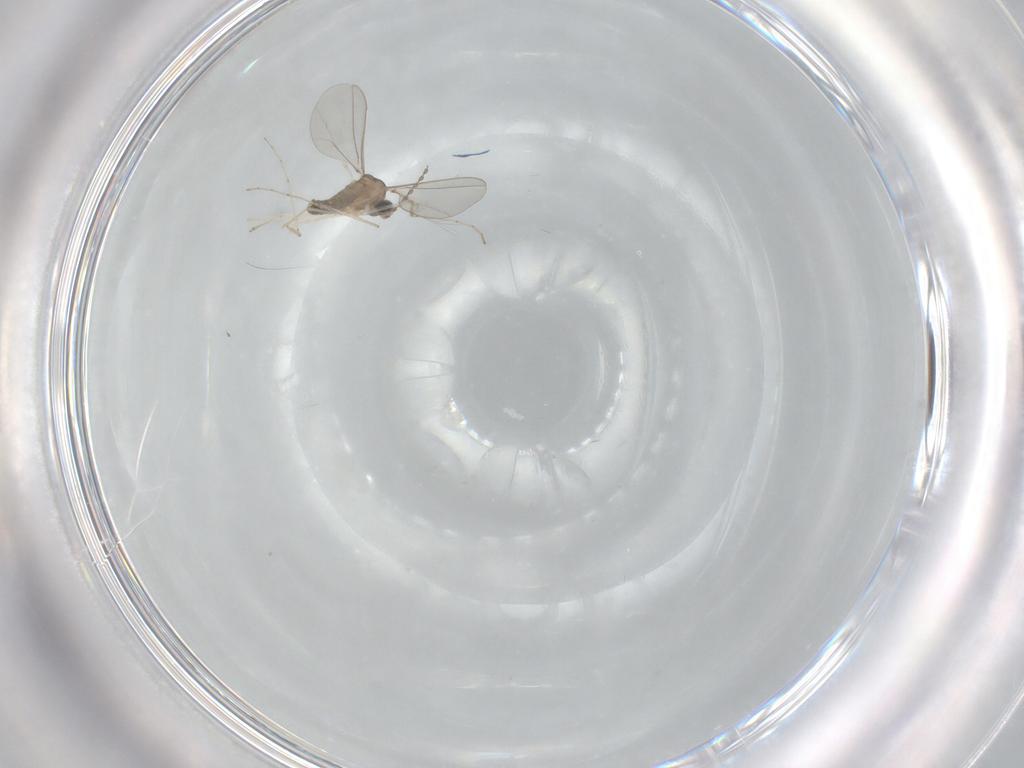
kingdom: Animalia
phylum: Arthropoda
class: Insecta
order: Diptera
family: Cecidomyiidae
